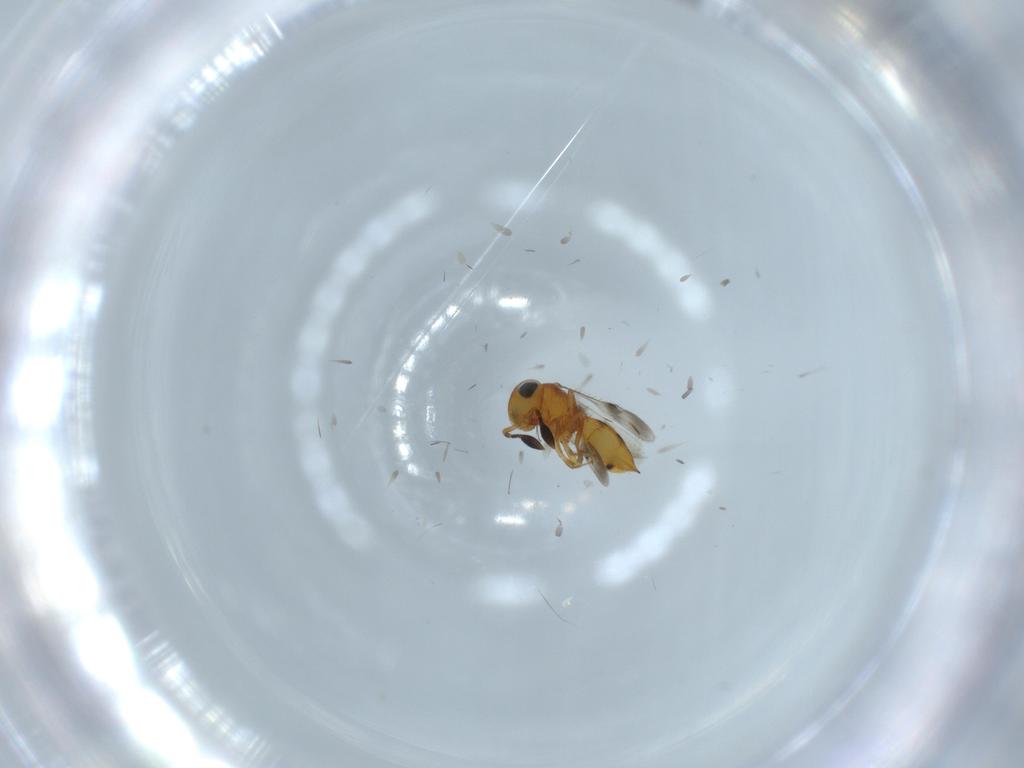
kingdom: Animalia
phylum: Arthropoda
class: Insecta
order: Hymenoptera
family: Scelionidae
